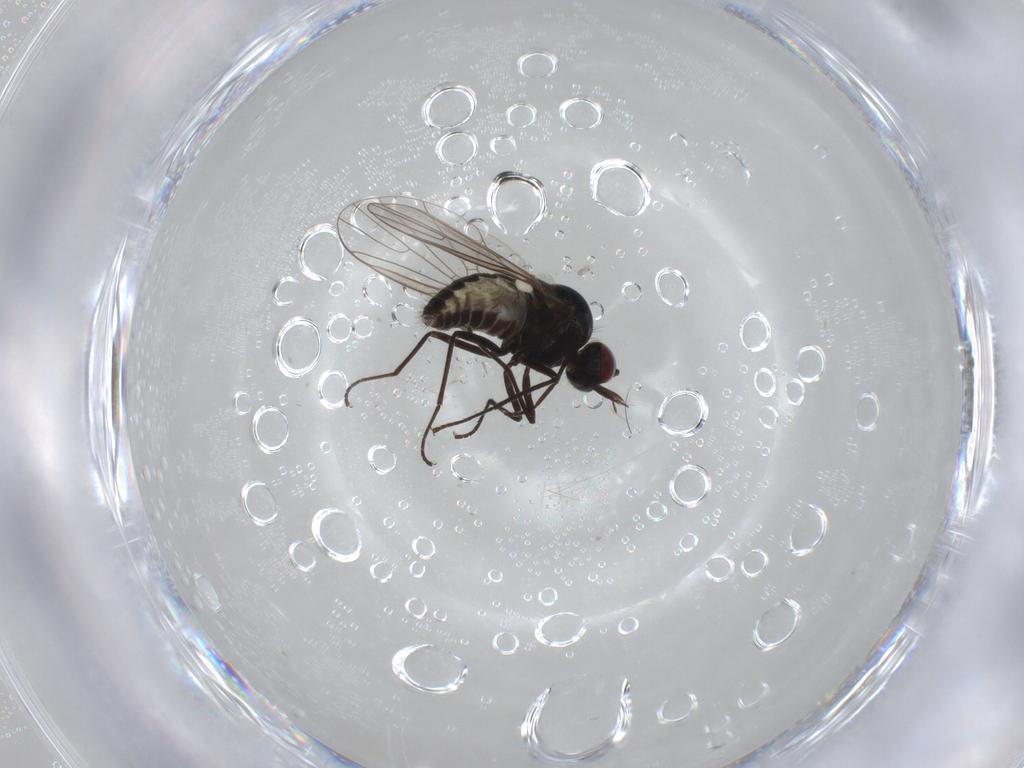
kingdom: Animalia
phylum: Arthropoda
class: Insecta
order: Diptera
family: Bombyliidae
